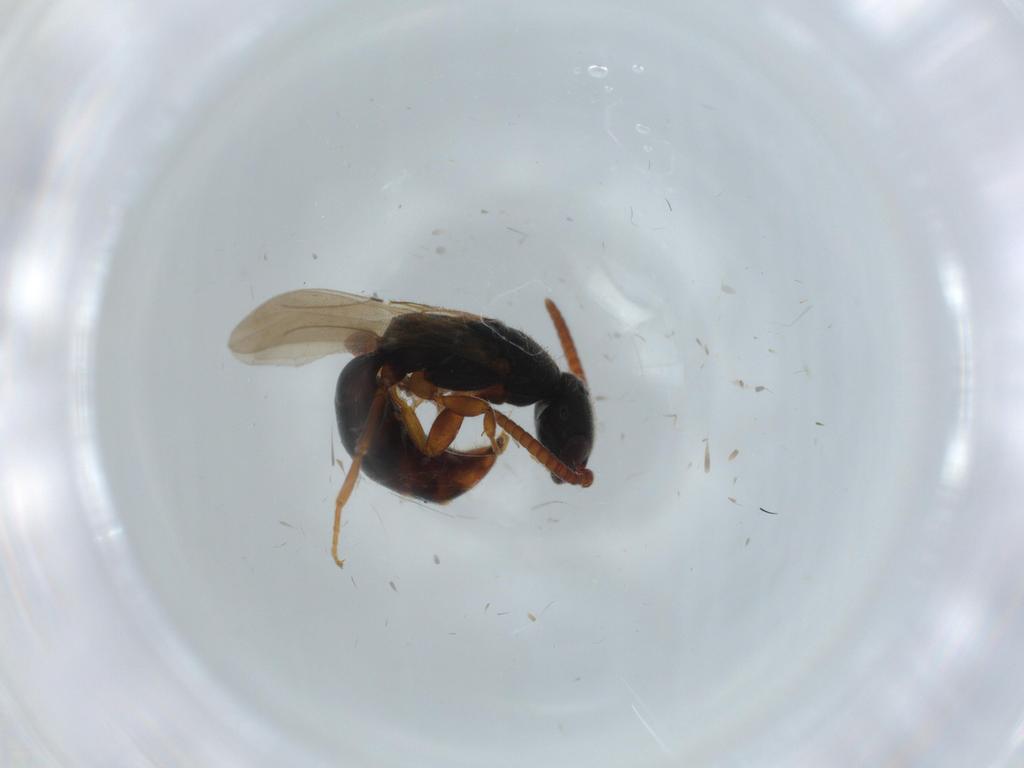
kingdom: Animalia
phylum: Arthropoda
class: Insecta
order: Hymenoptera
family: Bethylidae
